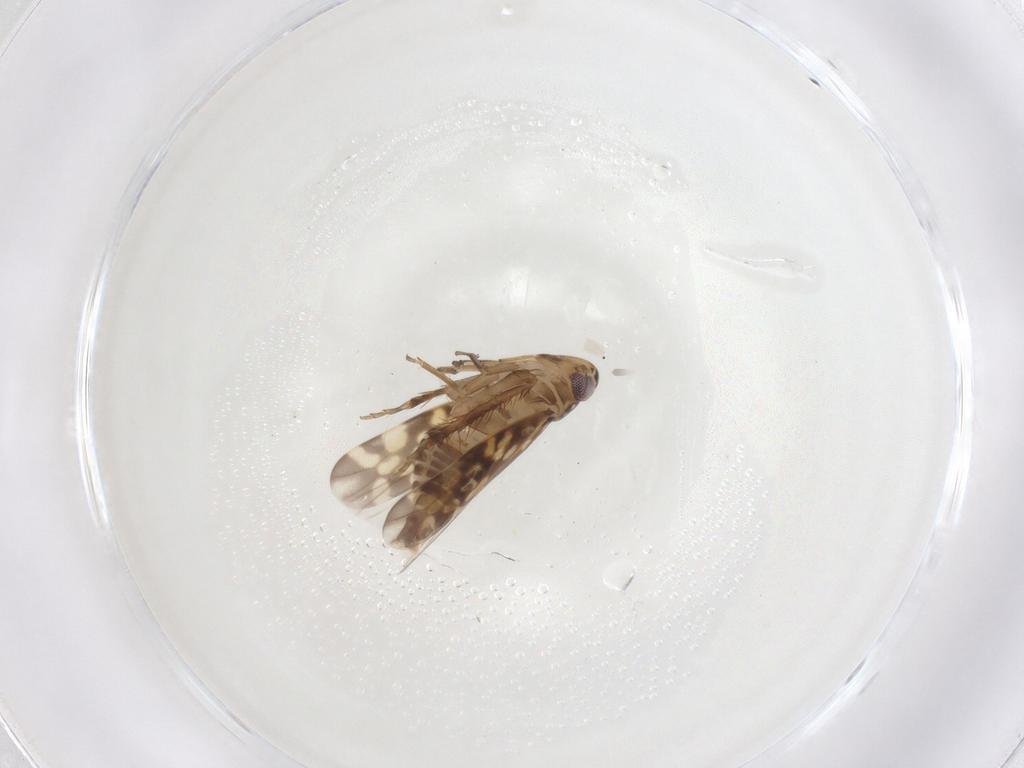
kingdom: Animalia
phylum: Arthropoda
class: Insecta
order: Hemiptera
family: Cicadellidae
